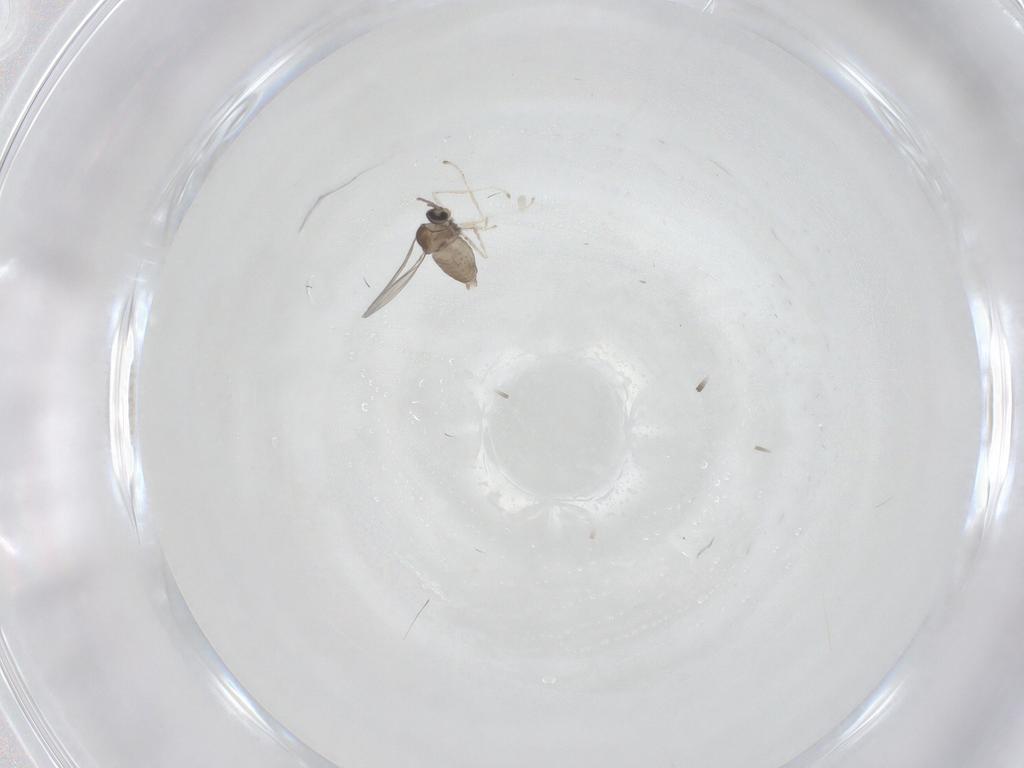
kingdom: Animalia
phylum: Arthropoda
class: Insecta
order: Diptera
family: Cecidomyiidae
